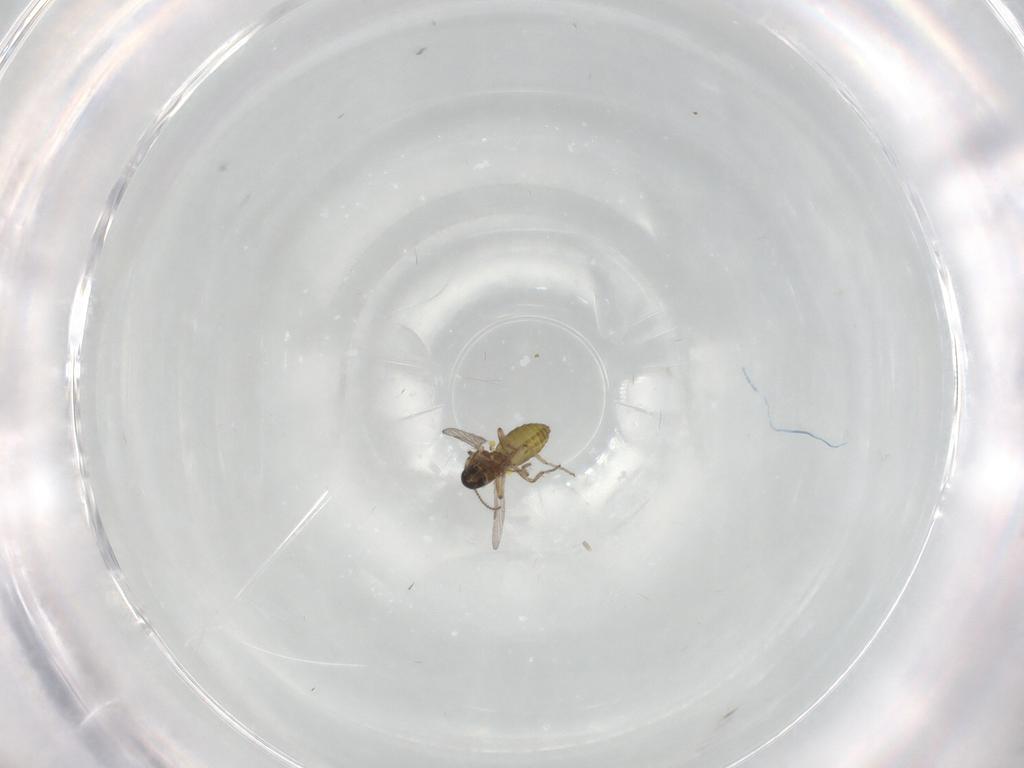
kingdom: Animalia
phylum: Arthropoda
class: Insecta
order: Diptera
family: Ceratopogonidae
